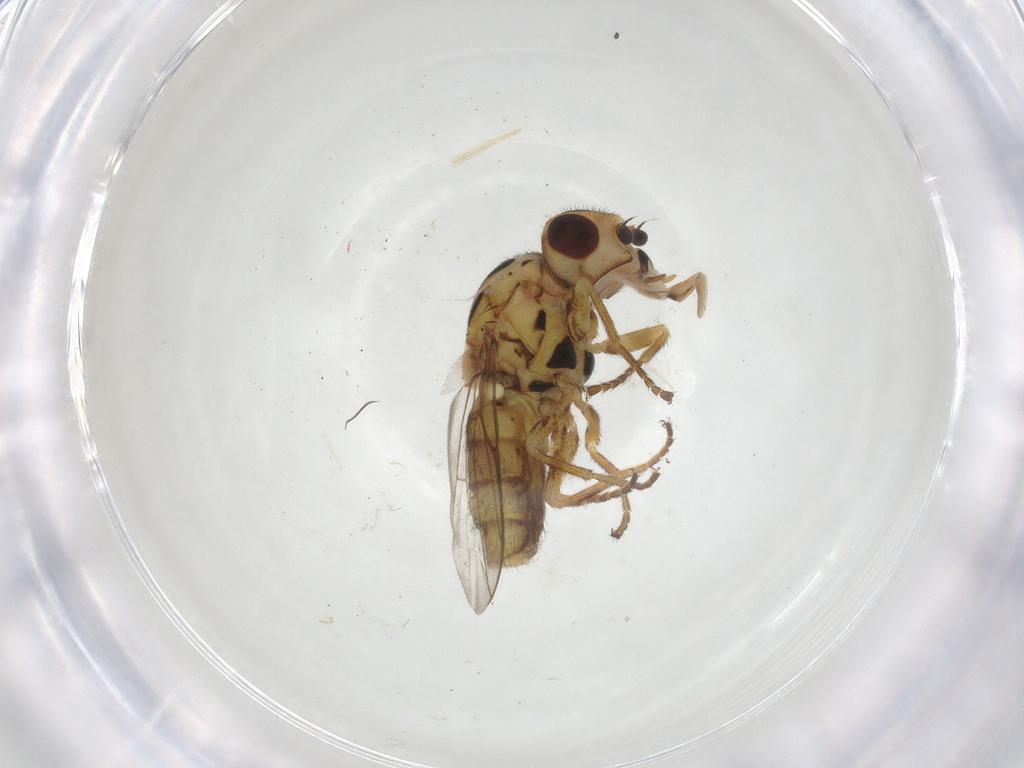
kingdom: Animalia
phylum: Arthropoda
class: Insecta
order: Diptera
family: Chloropidae
